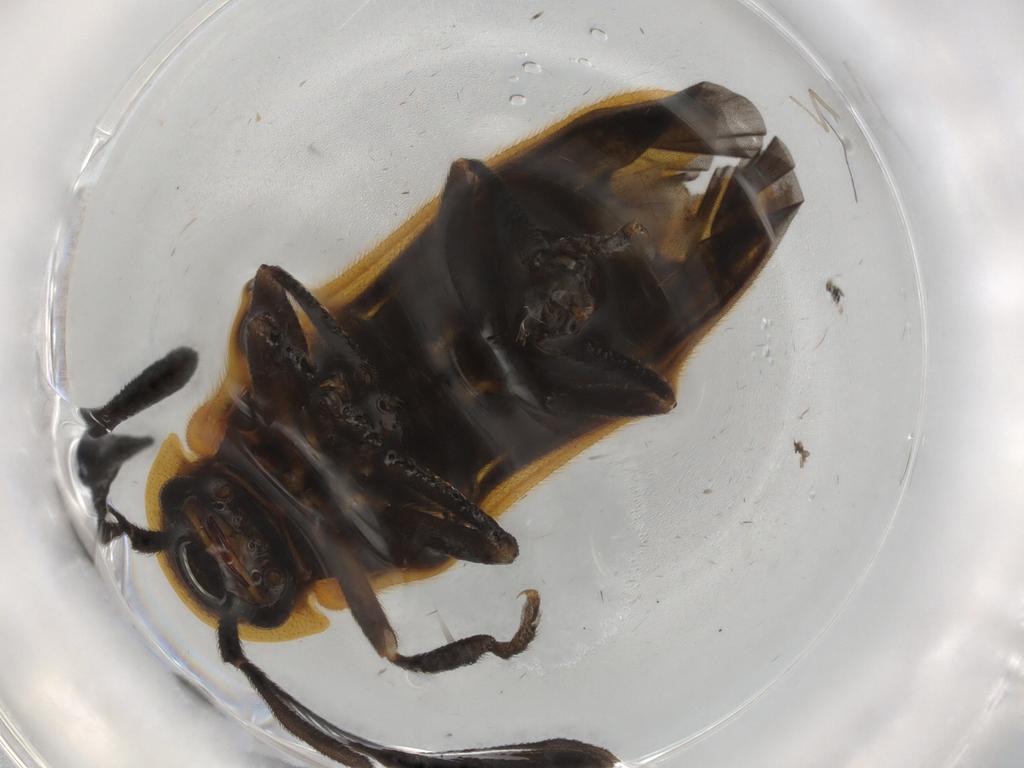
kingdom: Animalia
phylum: Arthropoda
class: Insecta
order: Coleoptera
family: Lampyridae
